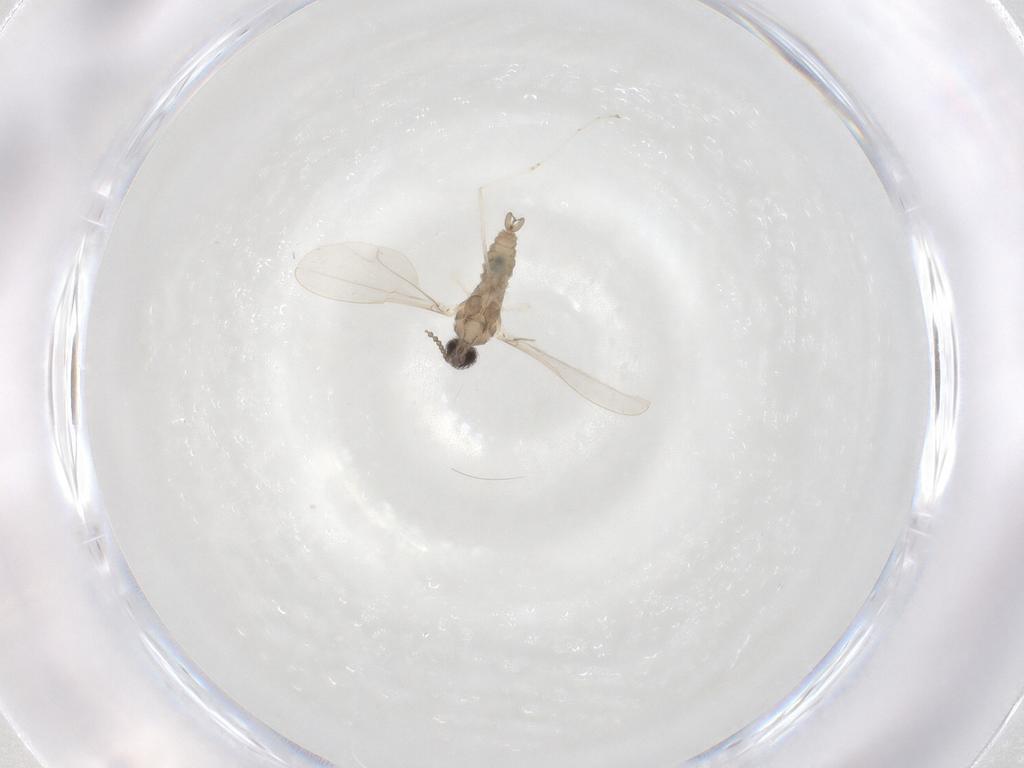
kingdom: Animalia
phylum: Arthropoda
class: Insecta
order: Diptera
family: Cecidomyiidae
